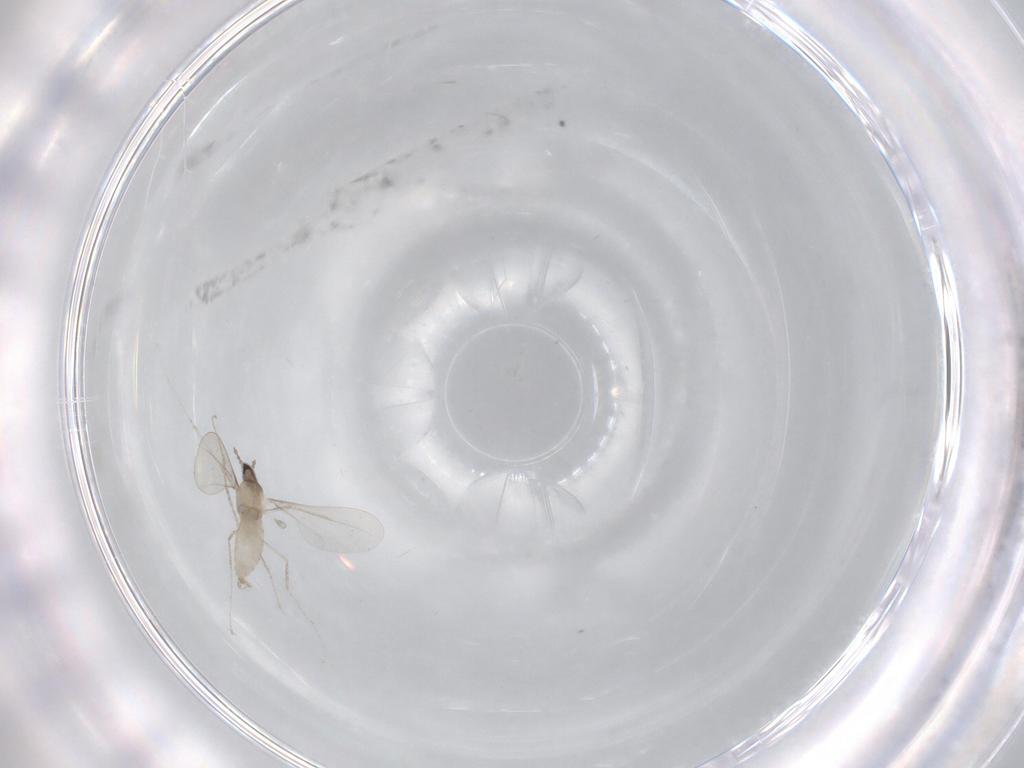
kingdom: Animalia
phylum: Arthropoda
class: Insecta
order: Diptera
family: Cecidomyiidae
